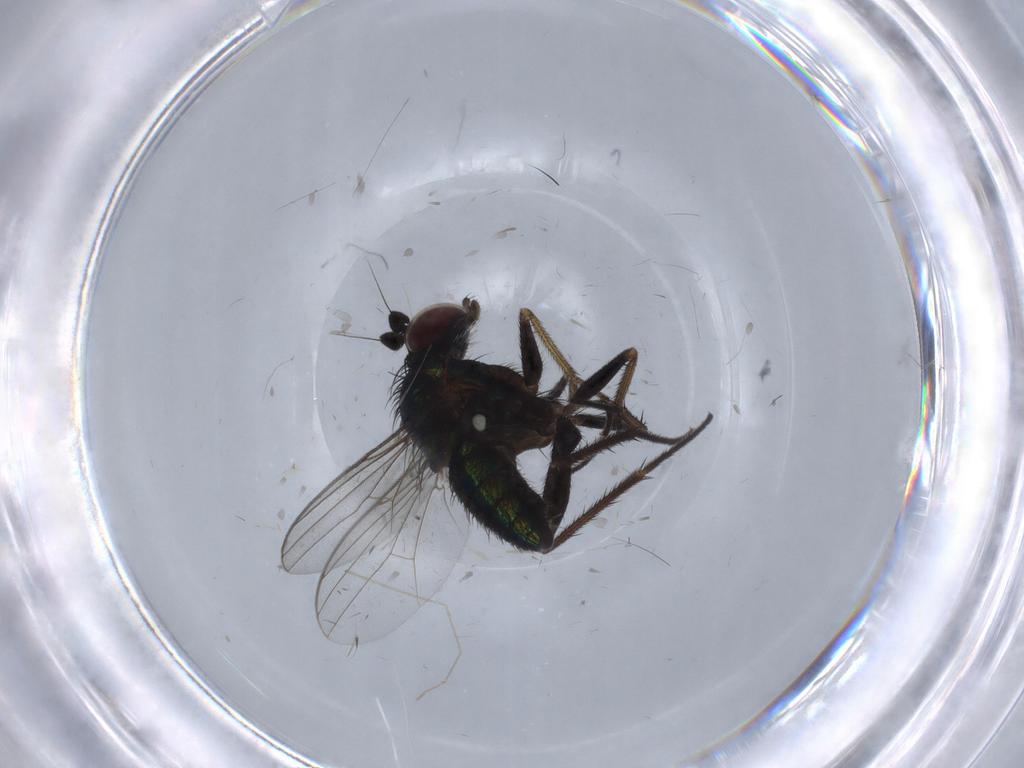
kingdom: Animalia
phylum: Arthropoda
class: Insecta
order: Diptera
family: Dolichopodidae
